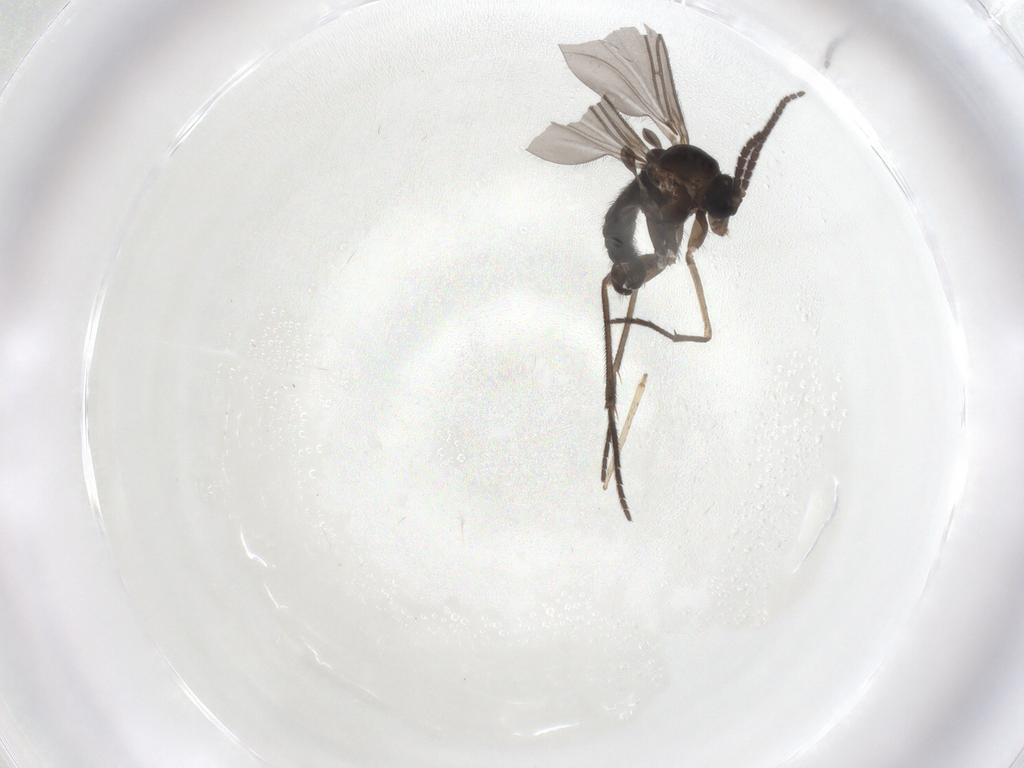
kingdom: Animalia
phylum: Arthropoda
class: Insecta
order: Diptera
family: Sciaridae
